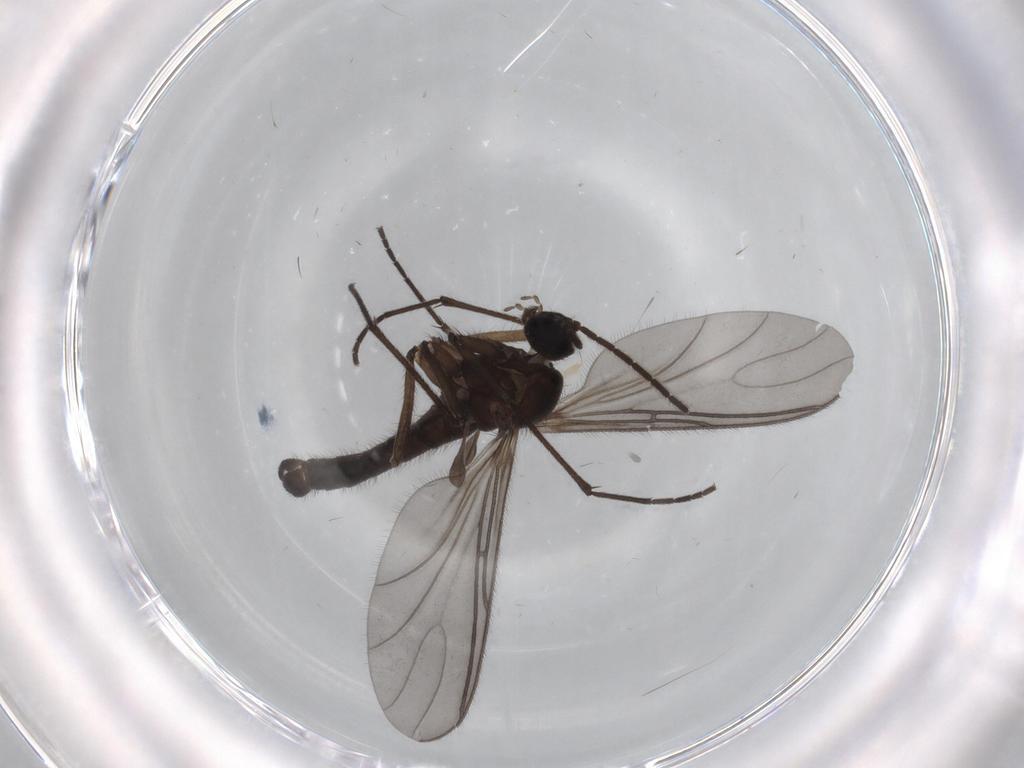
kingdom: Animalia
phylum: Arthropoda
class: Insecta
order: Diptera
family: Sciaridae
